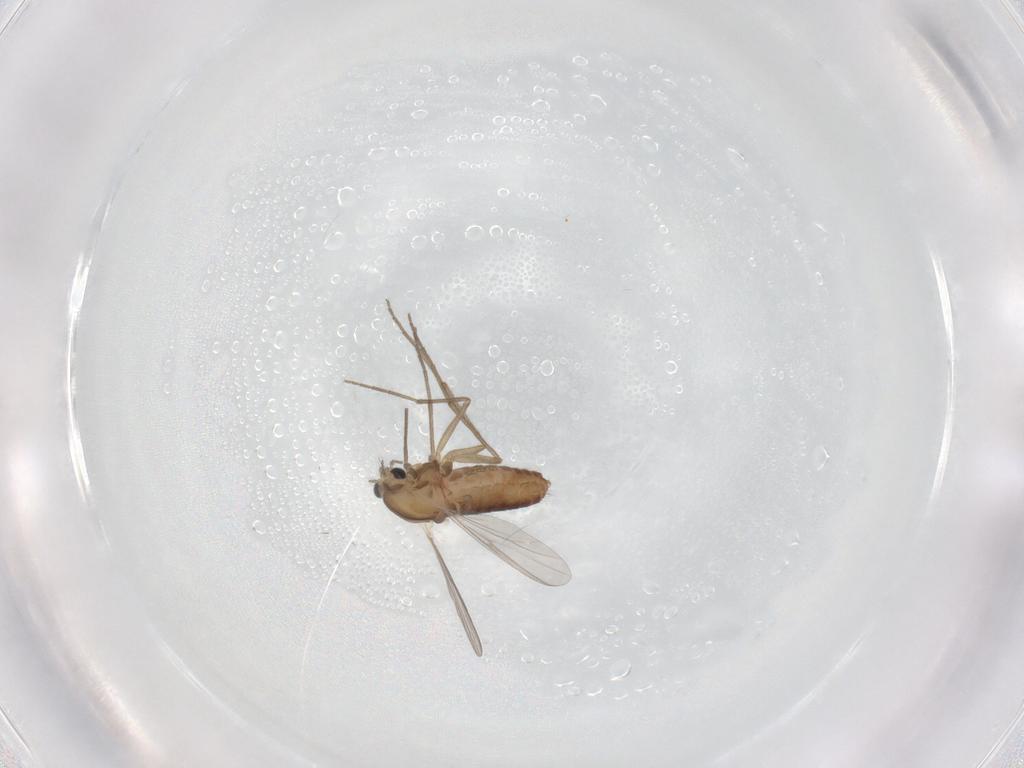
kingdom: Animalia
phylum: Arthropoda
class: Insecta
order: Diptera
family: Chironomidae
